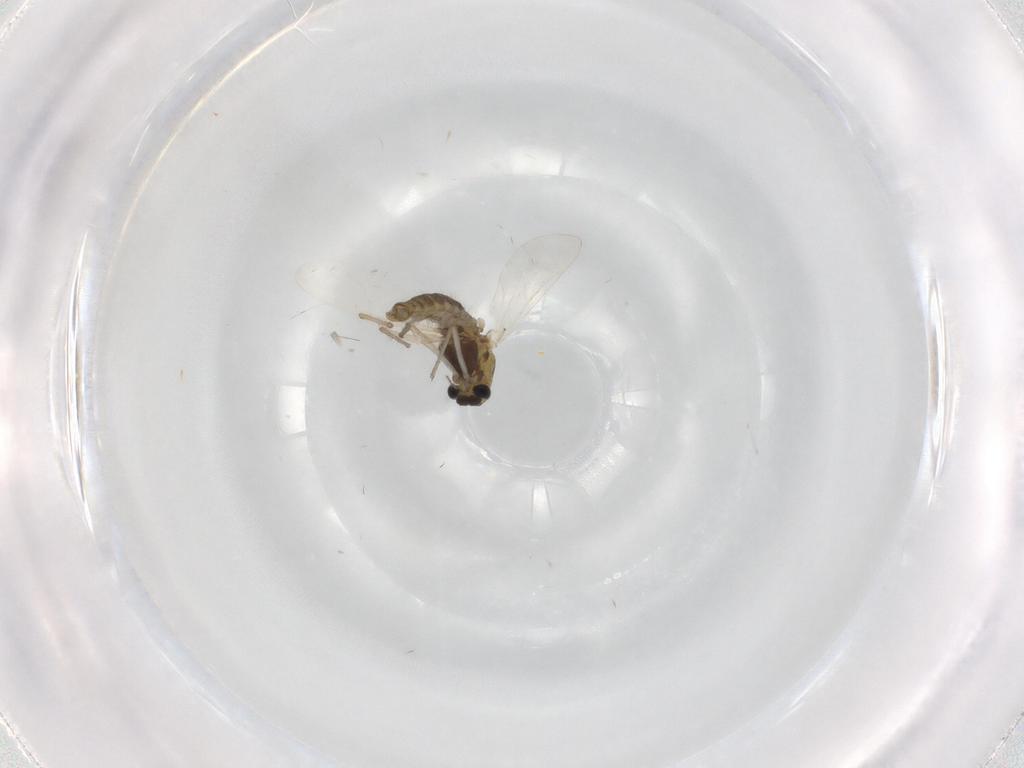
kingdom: Animalia
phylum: Arthropoda
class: Insecta
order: Diptera
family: Chironomidae
